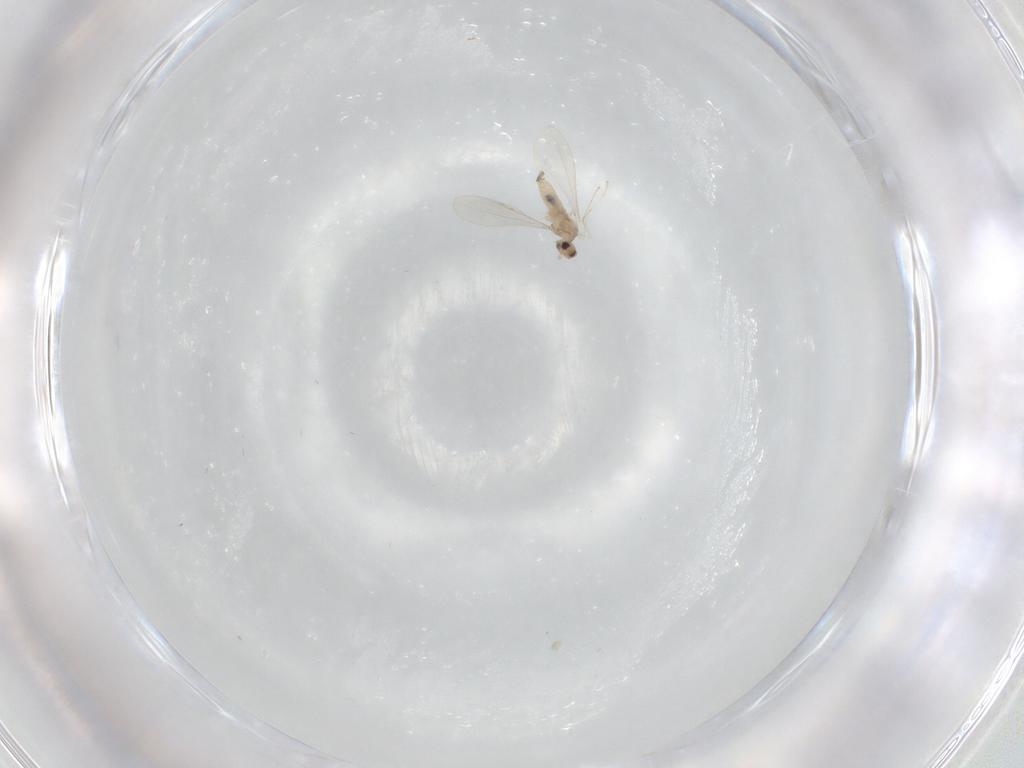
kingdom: Animalia
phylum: Arthropoda
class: Insecta
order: Diptera
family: Cecidomyiidae
